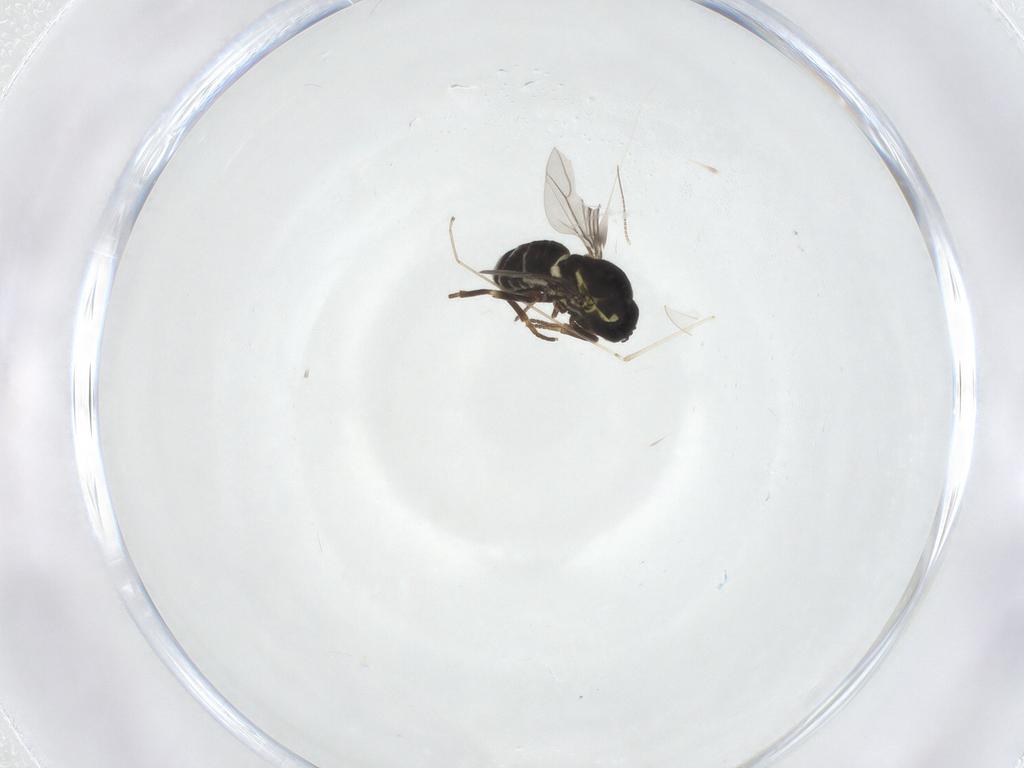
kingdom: Animalia
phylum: Arthropoda
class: Insecta
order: Diptera
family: Bombyliidae
